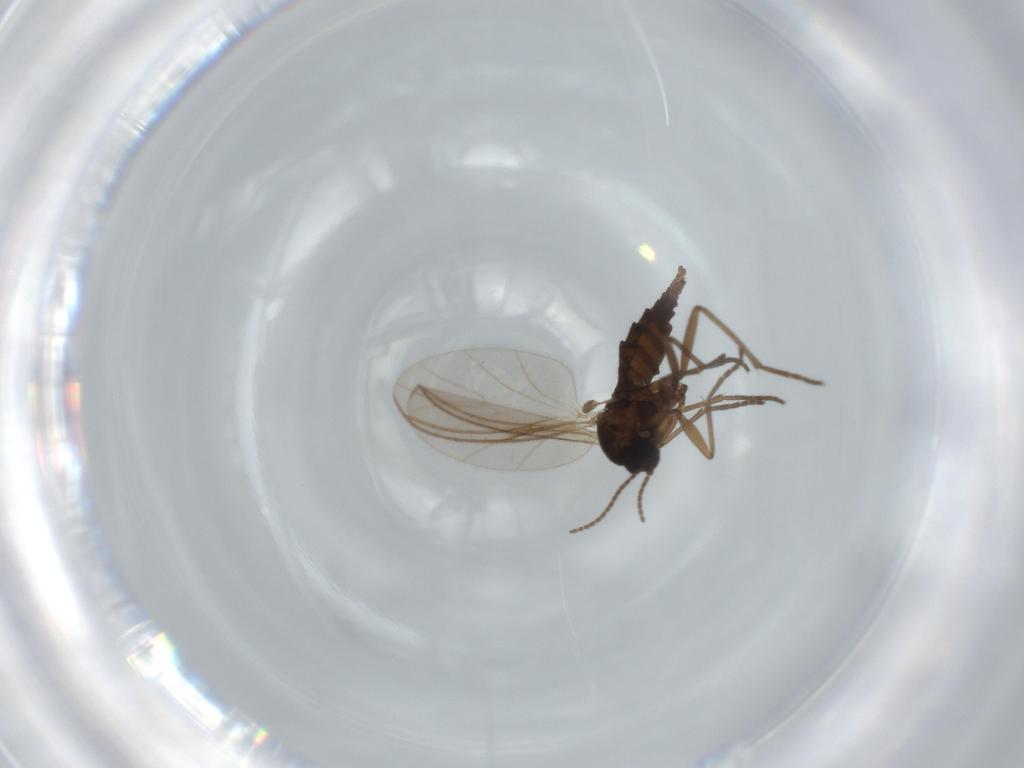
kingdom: Animalia
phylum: Arthropoda
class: Insecta
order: Diptera
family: Sciaridae
